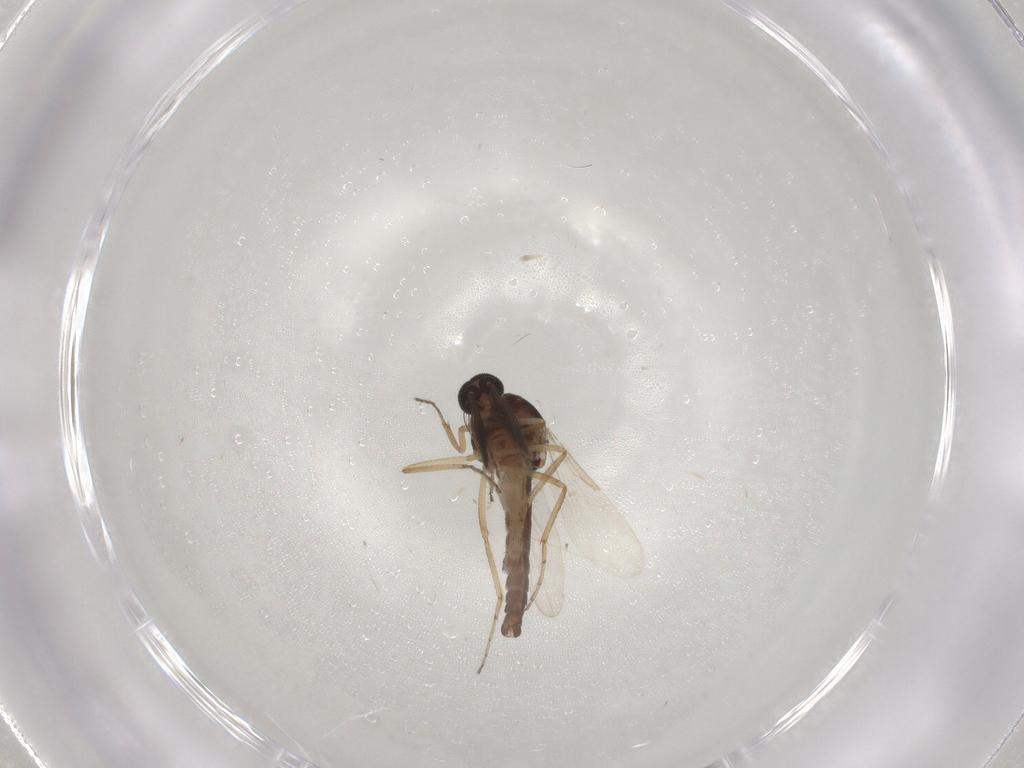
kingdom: Animalia
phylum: Arthropoda
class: Insecta
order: Diptera
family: Ceratopogonidae
